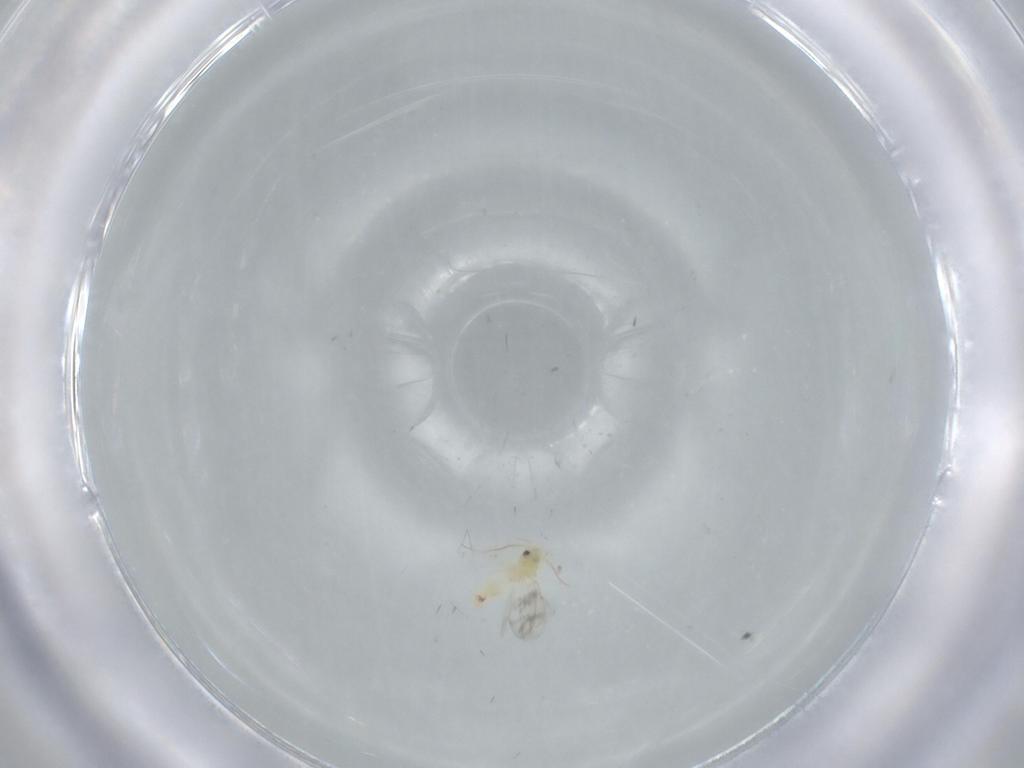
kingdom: Animalia
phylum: Arthropoda
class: Insecta
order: Hemiptera
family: Aleyrodidae
